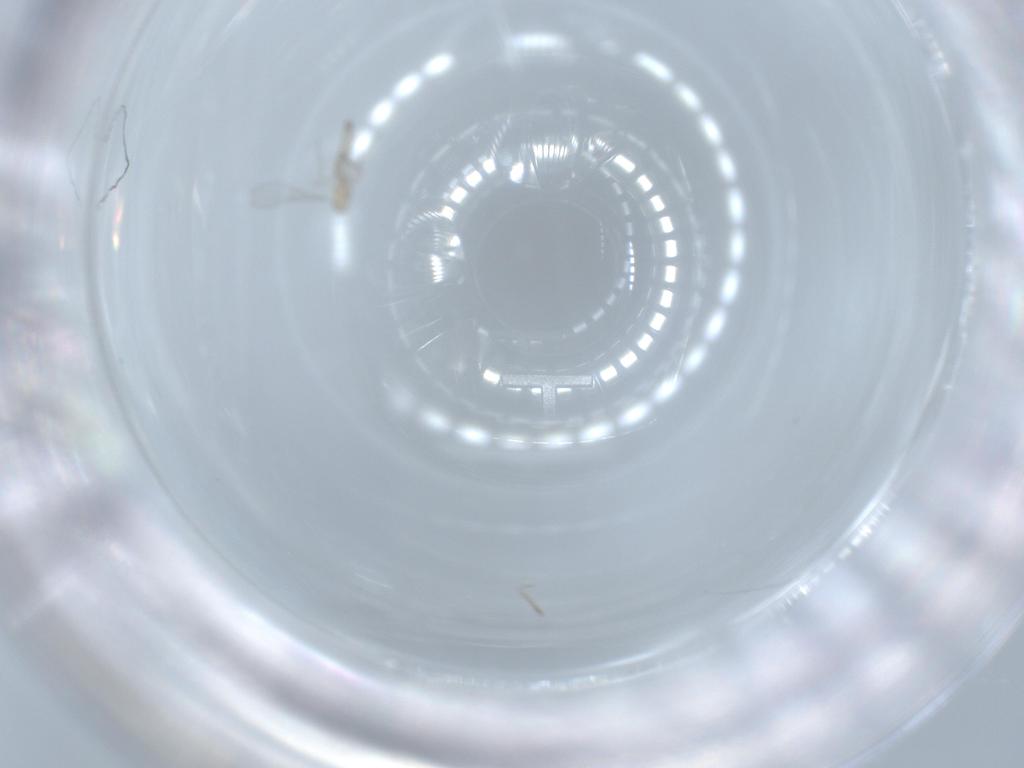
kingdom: Animalia
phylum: Arthropoda
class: Insecta
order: Diptera
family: Cecidomyiidae
